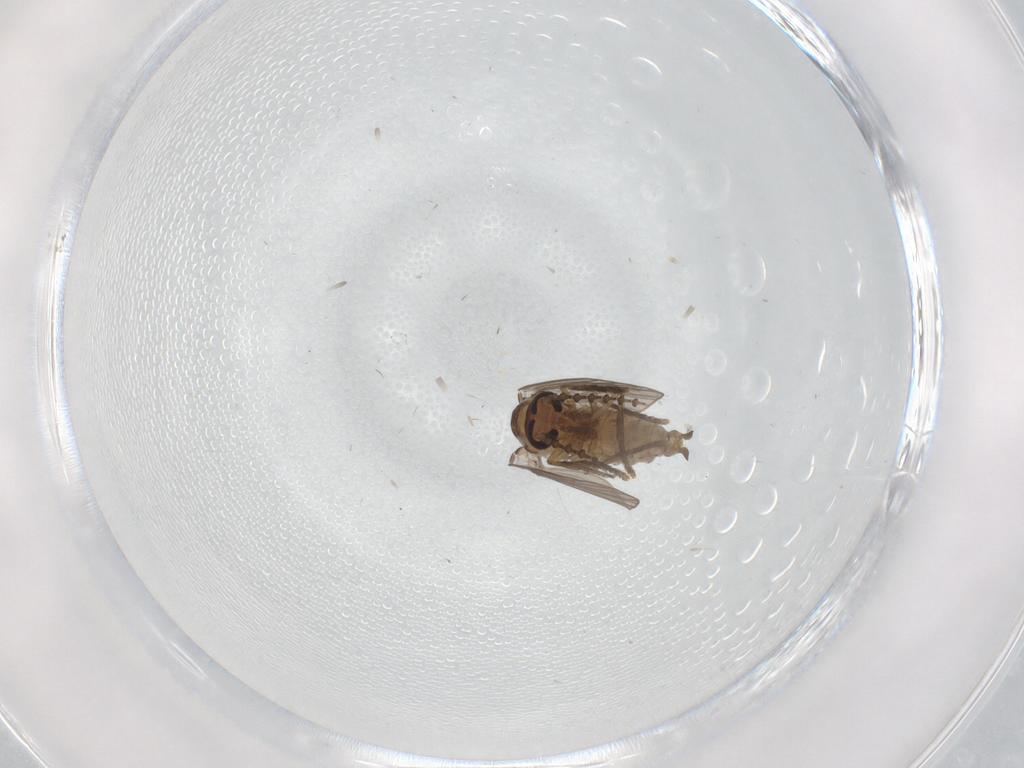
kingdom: Animalia
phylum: Arthropoda
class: Insecta
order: Diptera
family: Psychodidae
